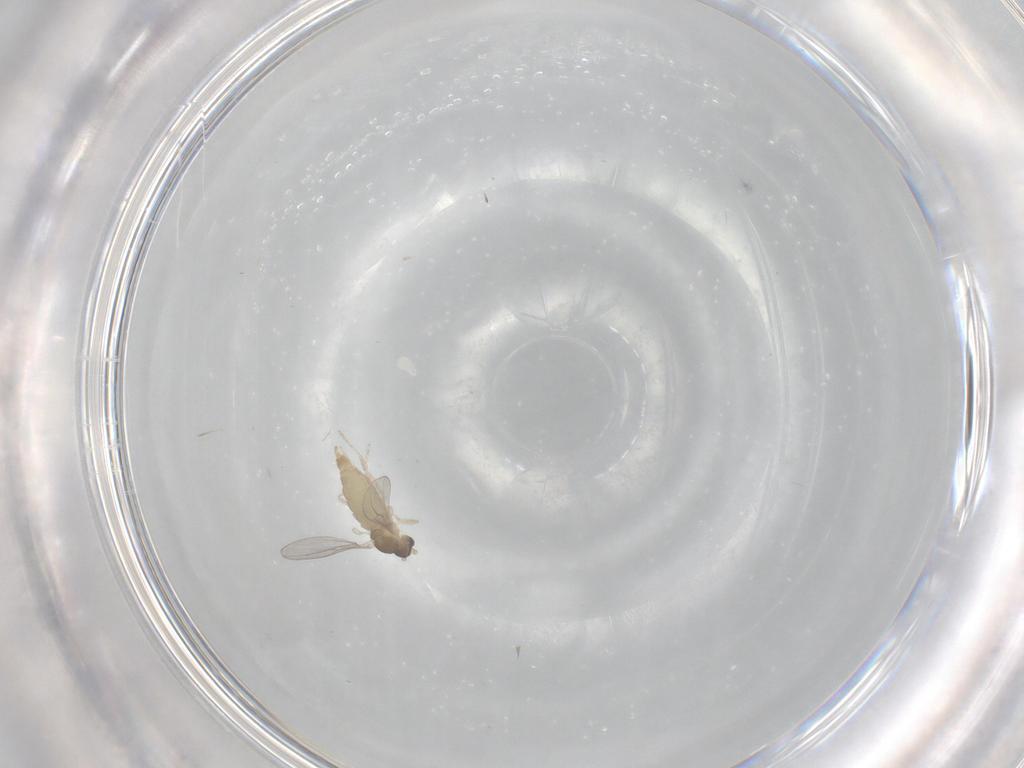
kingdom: Animalia
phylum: Arthropoda
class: Insecta
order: Diptera
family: Cecidomyiidae
